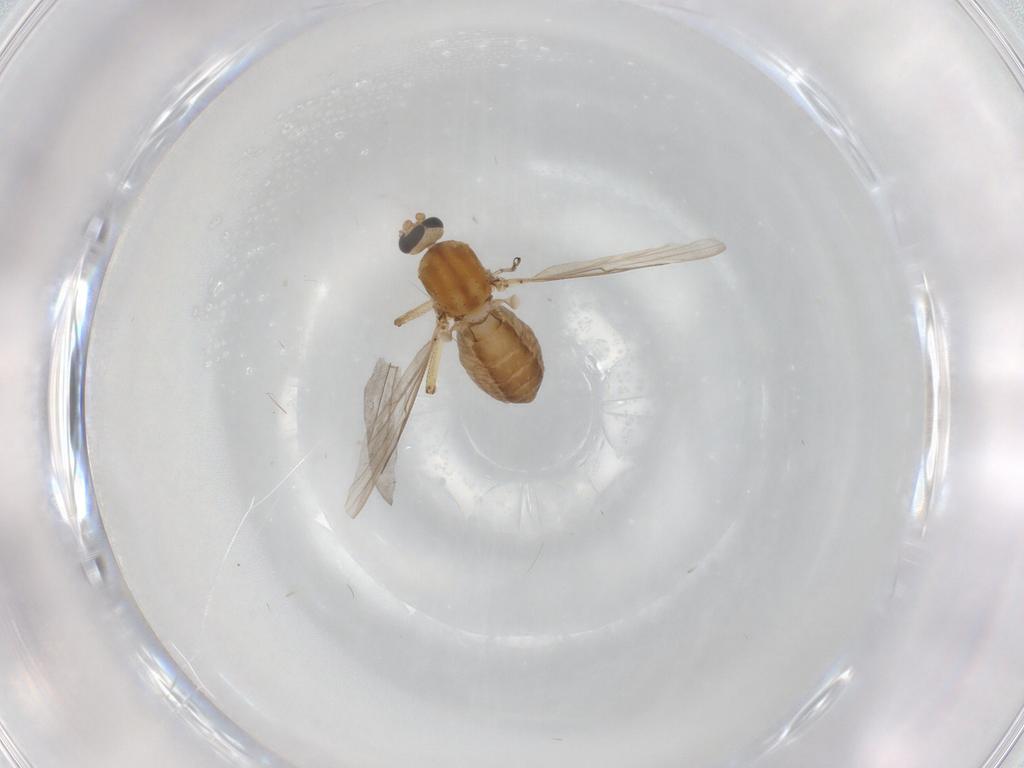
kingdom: Animalia
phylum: Arthropoda
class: Insecta
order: Diptera
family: Ceratopogonidae
